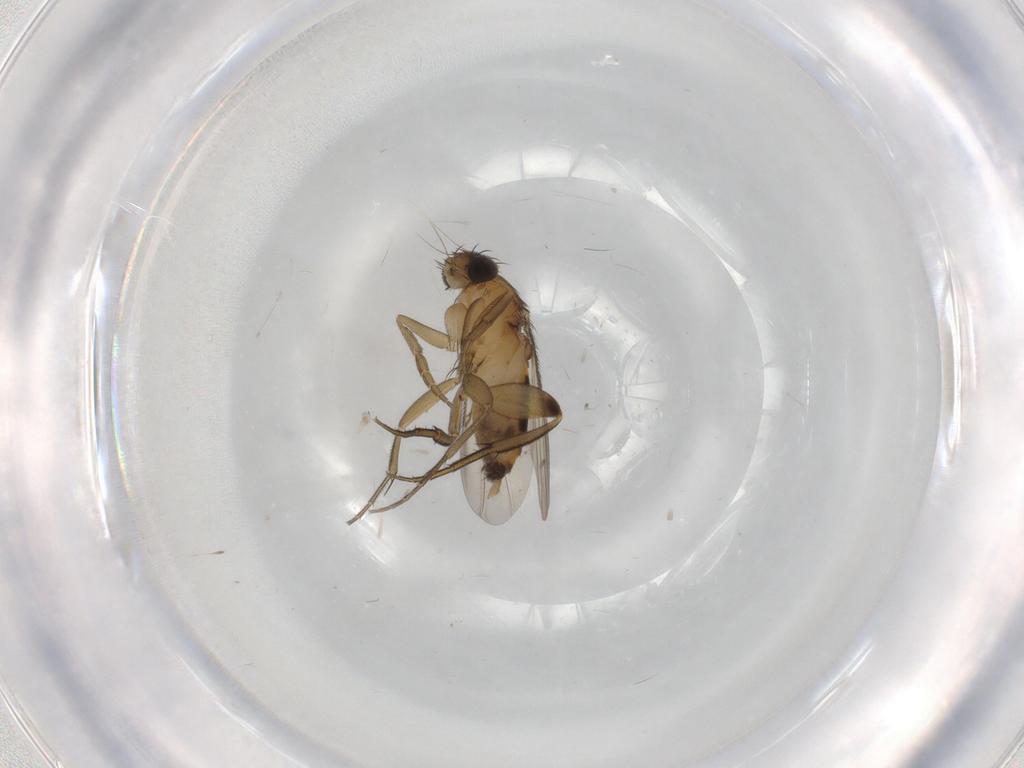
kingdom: Animalia
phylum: Arthropoda
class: Insecta
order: Diptera
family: Phoridae
